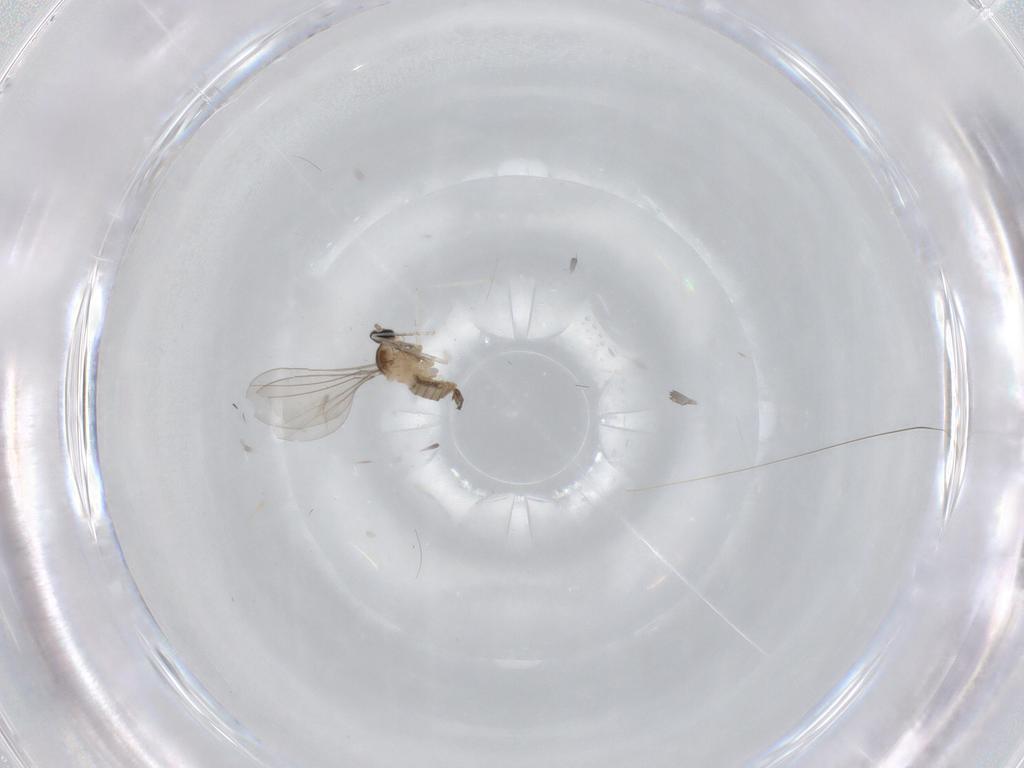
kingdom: Animalia
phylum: Arthropoda
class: Insecta
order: Diptera
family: Cecidomyiidae
